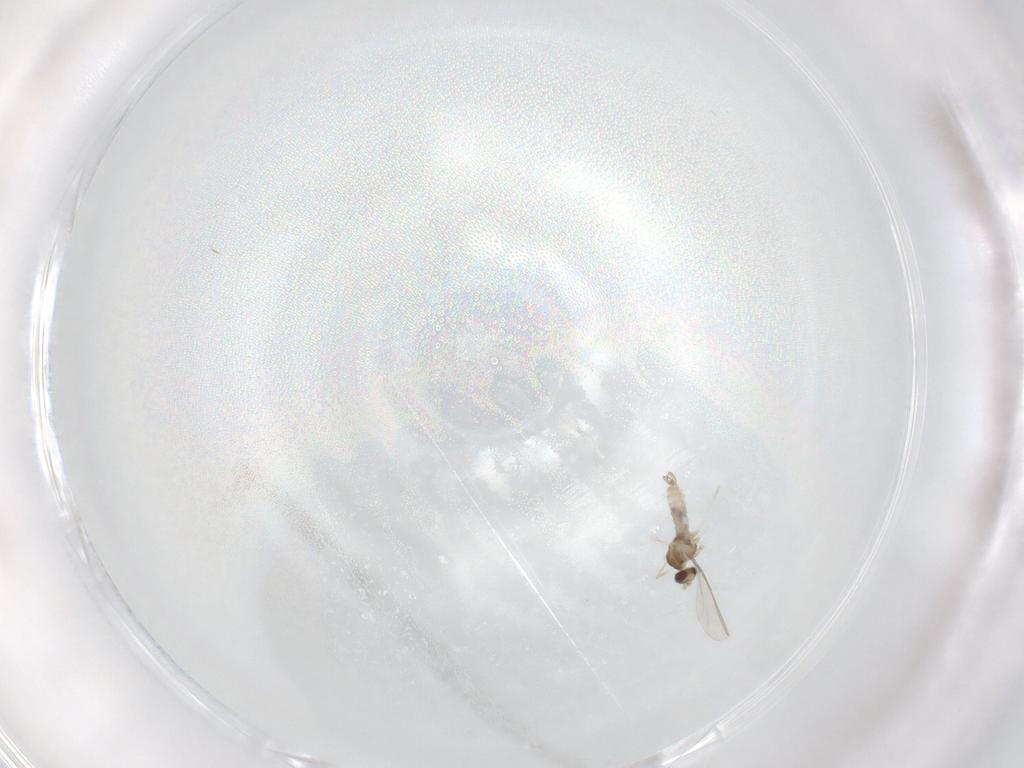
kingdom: Animalia
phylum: Arthropoda
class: Insecta
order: Diptera
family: Cecidomyiidae
